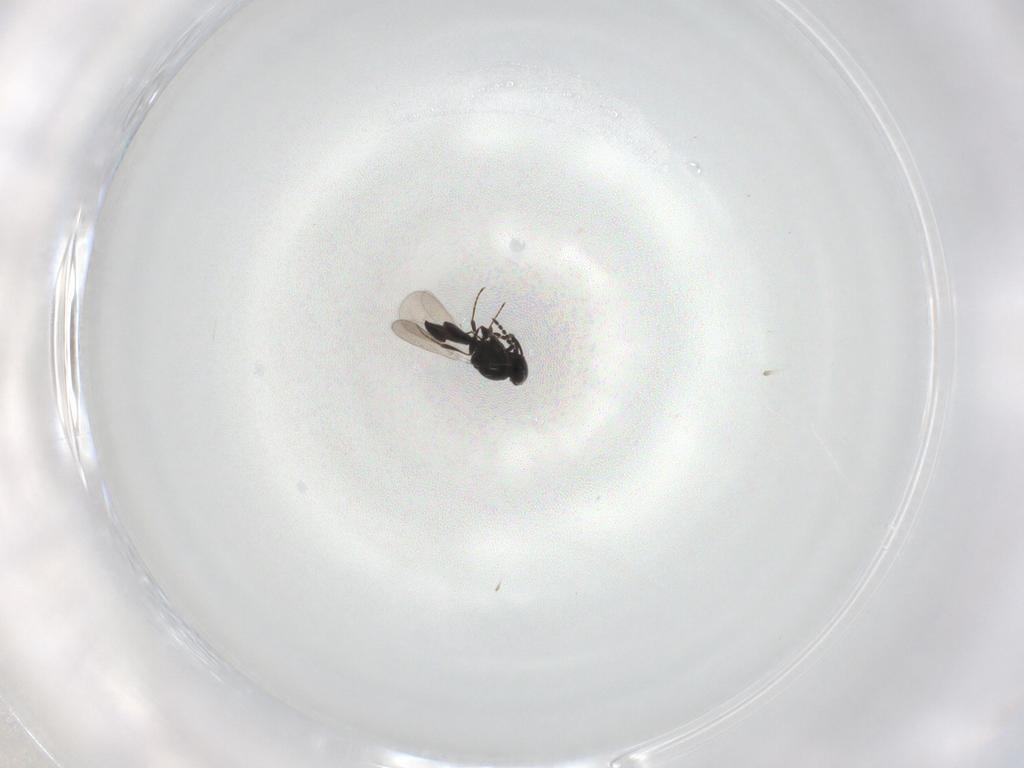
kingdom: Animalia
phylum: Arthropoda
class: Insecta
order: Hymenoptera
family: Platygastridae
